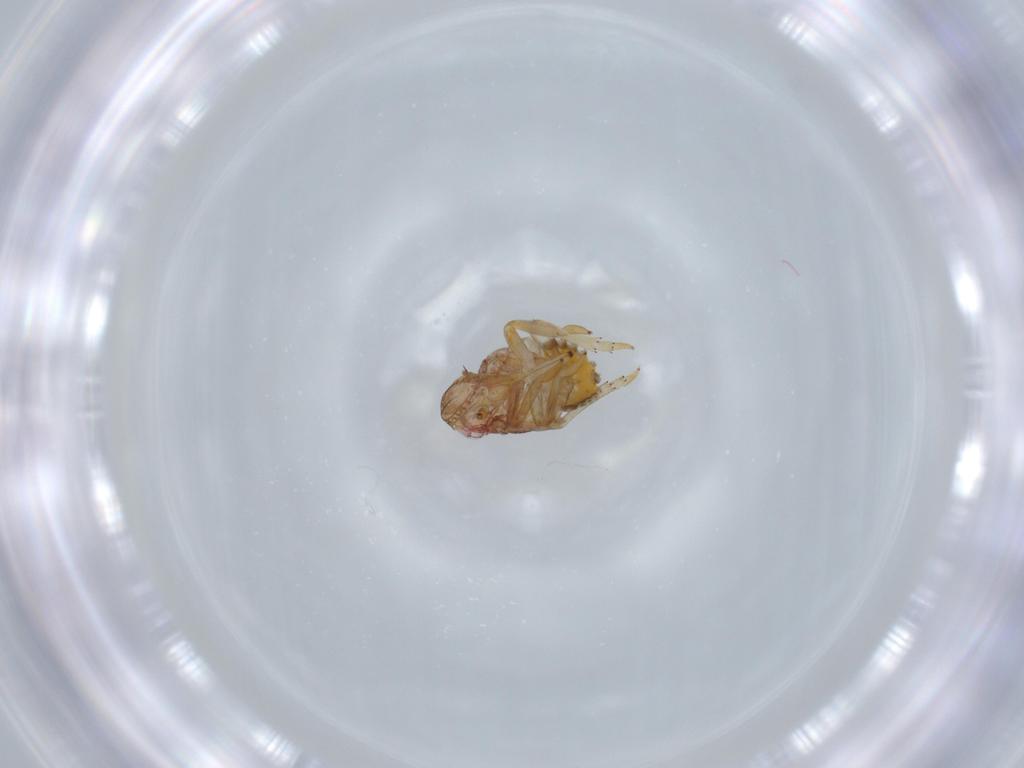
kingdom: Animalia
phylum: Arthropoda
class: Insecta
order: Hemiptera
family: Issidae
